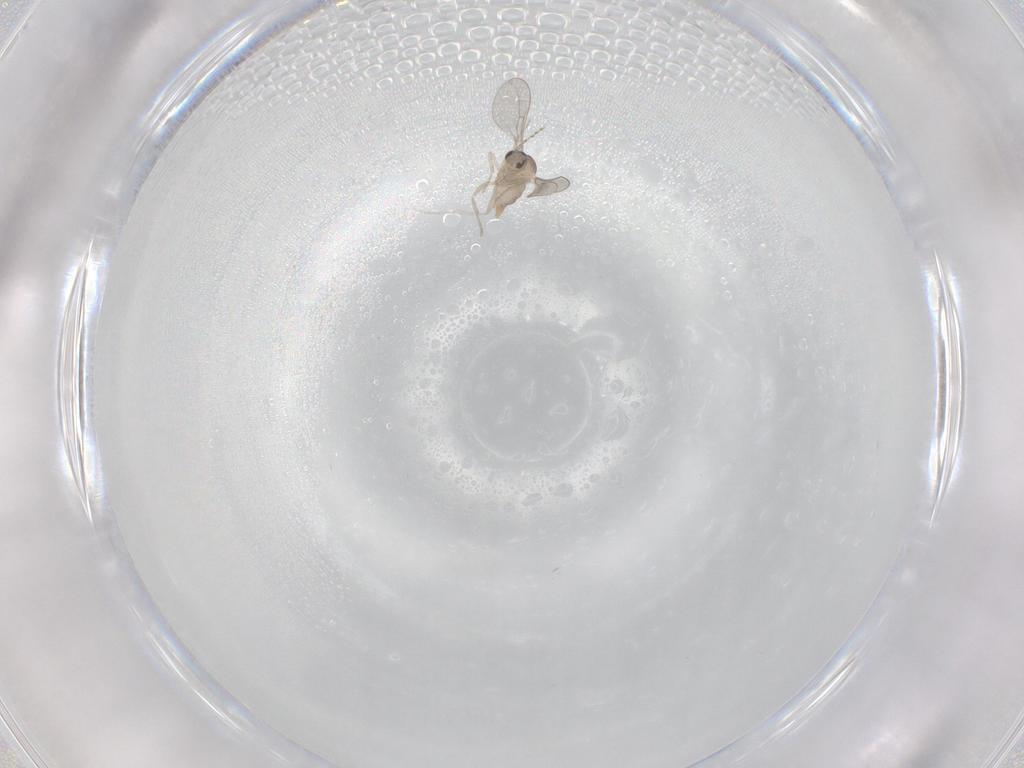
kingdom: Animalia
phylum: Arthropoda
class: Insecta
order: Diptera
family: Cecidomyiidae
